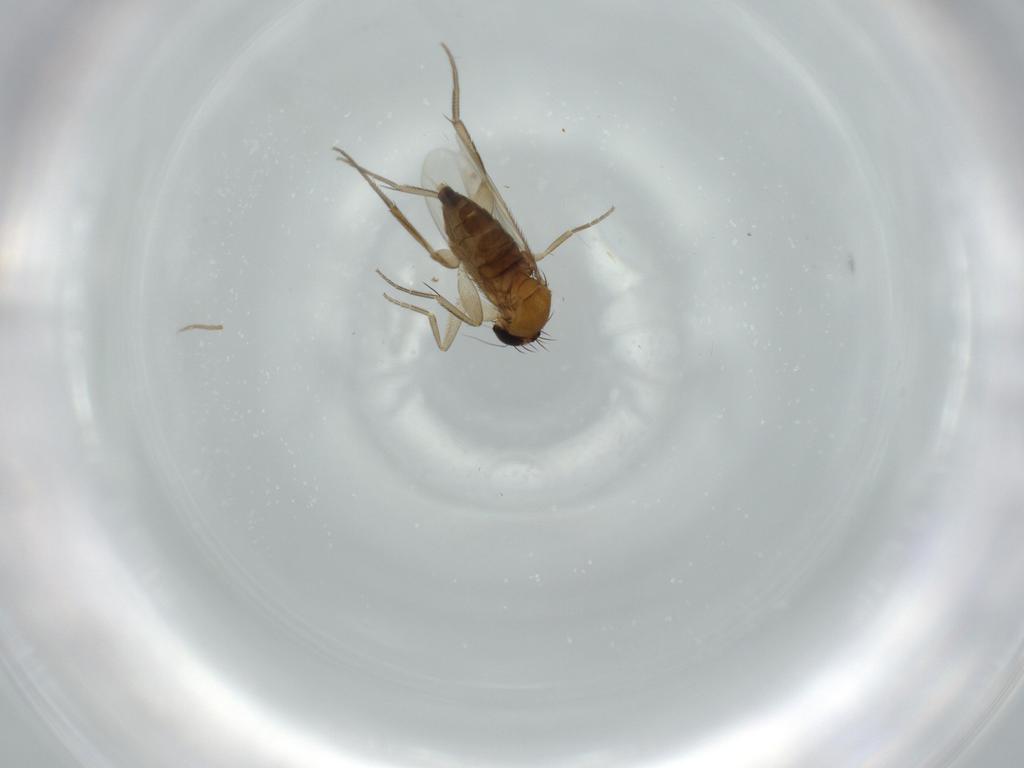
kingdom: Animalia
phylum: Arthropoda
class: Insecta
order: Diptera
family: Phoridae
